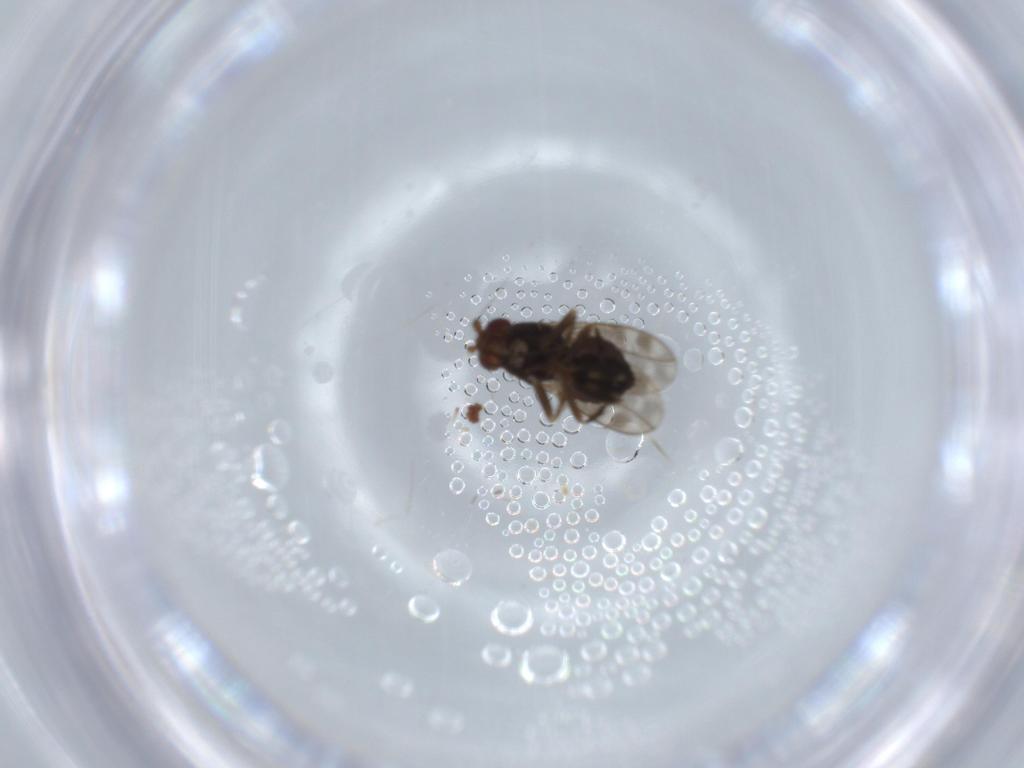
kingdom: Animalia
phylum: Arthropoda
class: Insecta
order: Diptera
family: Sphaeroceridae
